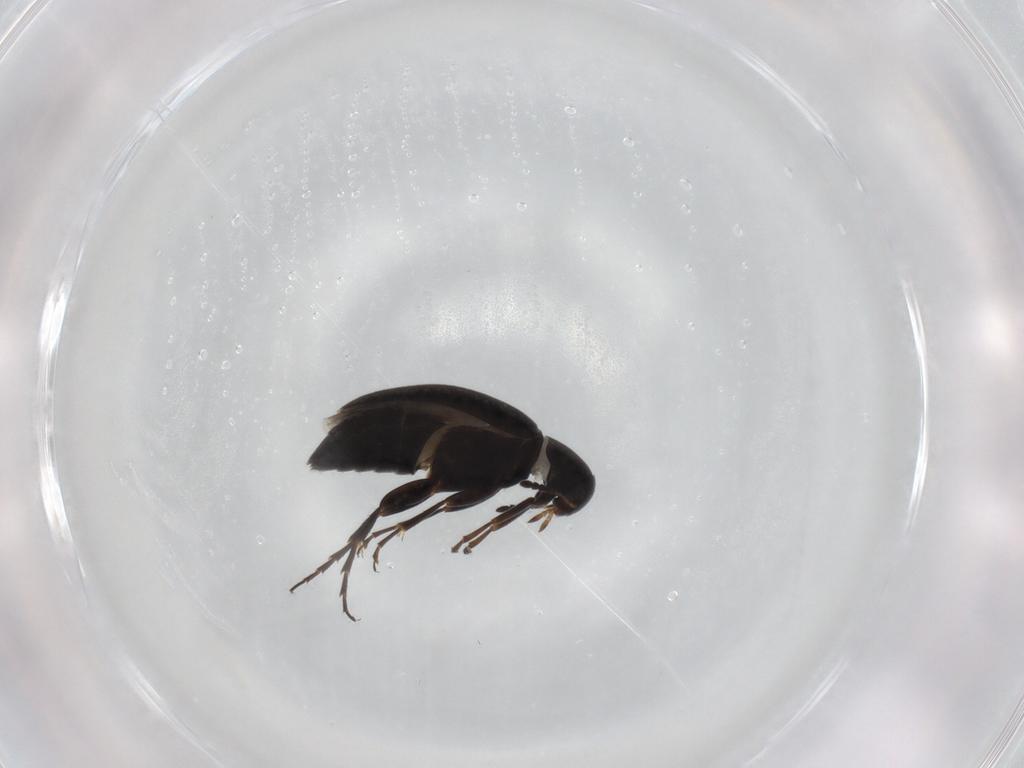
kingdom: Animalia
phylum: Arthropoda
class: Insecta
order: Coleoptera
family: Scraptiidae
